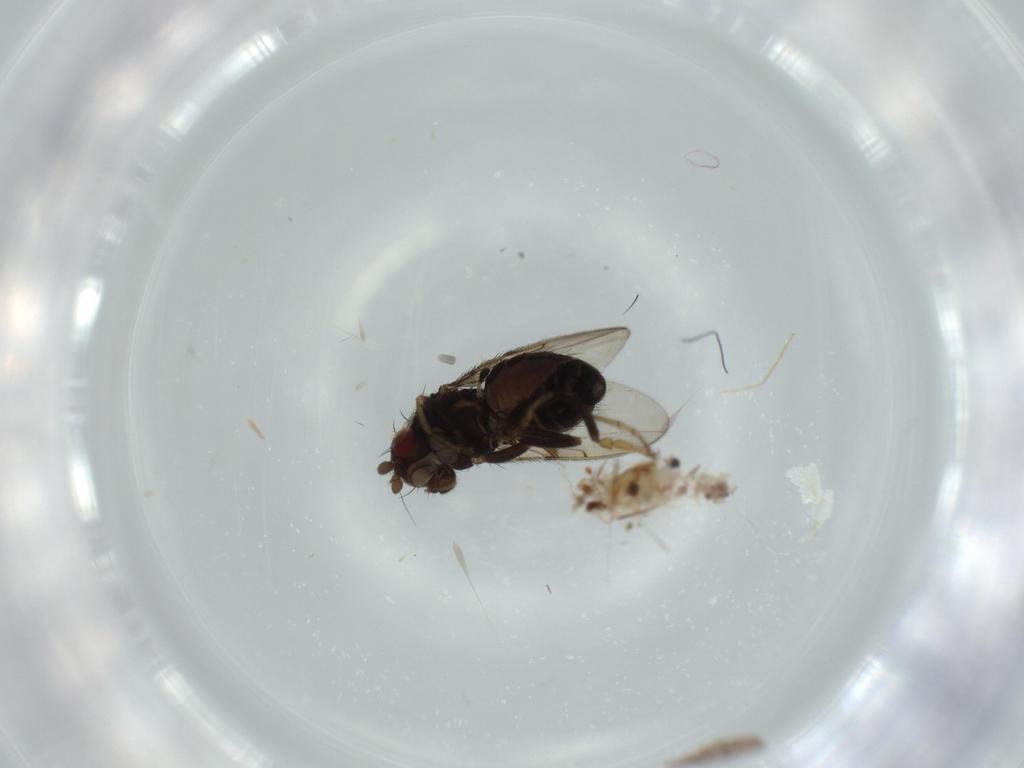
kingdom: Animalia
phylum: Arthropoda
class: Insecta
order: Diptera
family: Chloropidae
